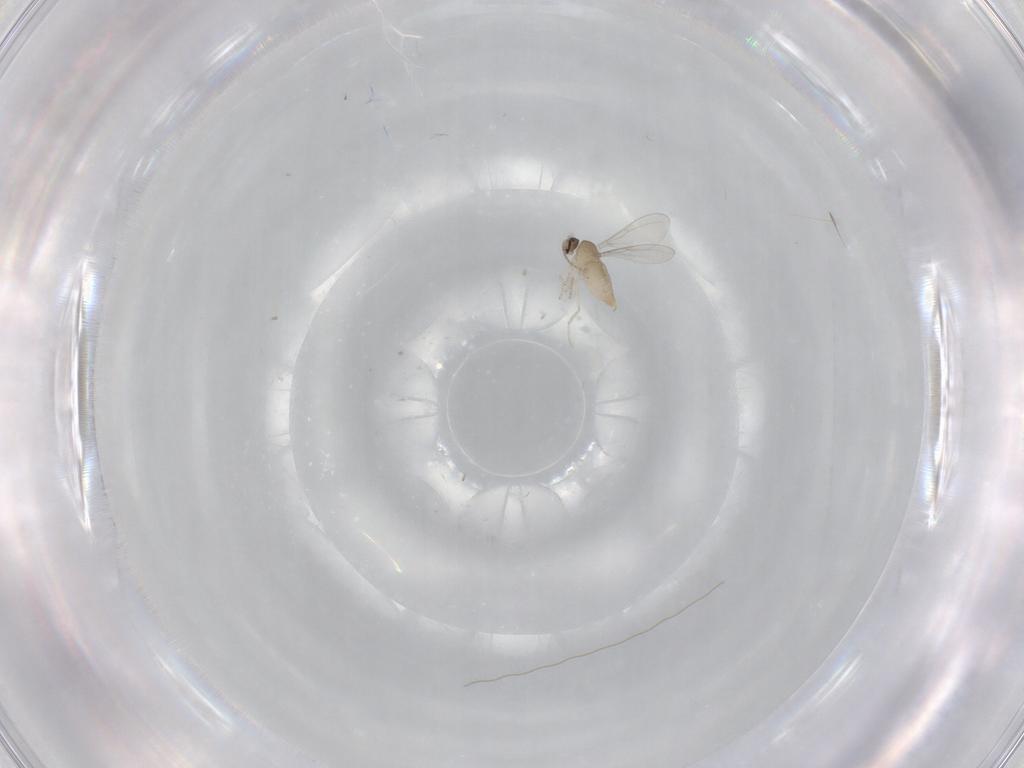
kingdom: Animalia
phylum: Arthropoda
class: Insecta
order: Diptera
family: Cecidomyiidae
